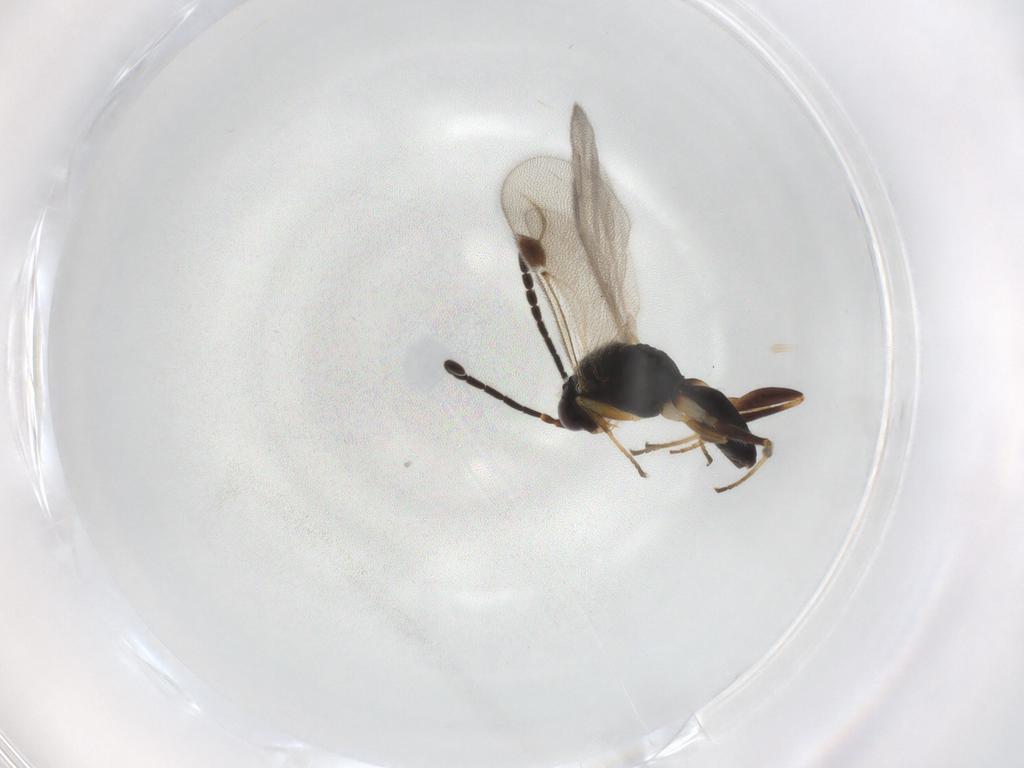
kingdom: Animalia
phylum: Arthropoda
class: Insecta
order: Hymenoptera
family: Dryinidae
